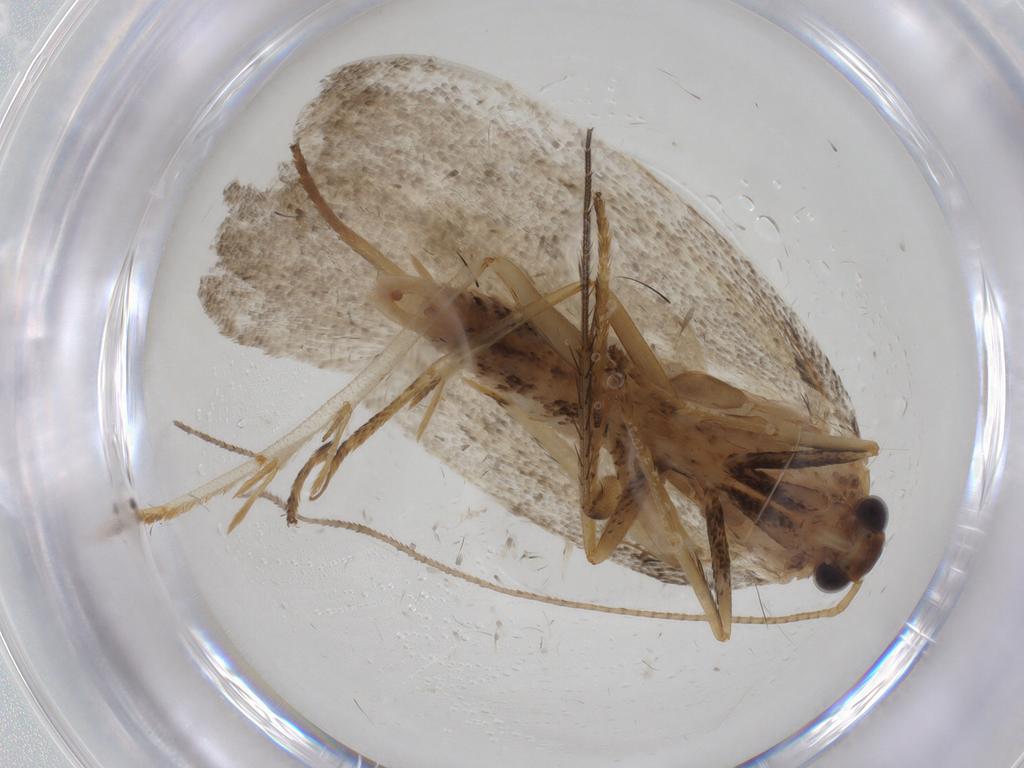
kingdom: Animalia
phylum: Arthropoda
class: Insecta
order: Lepidoptera
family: Depressariidae
